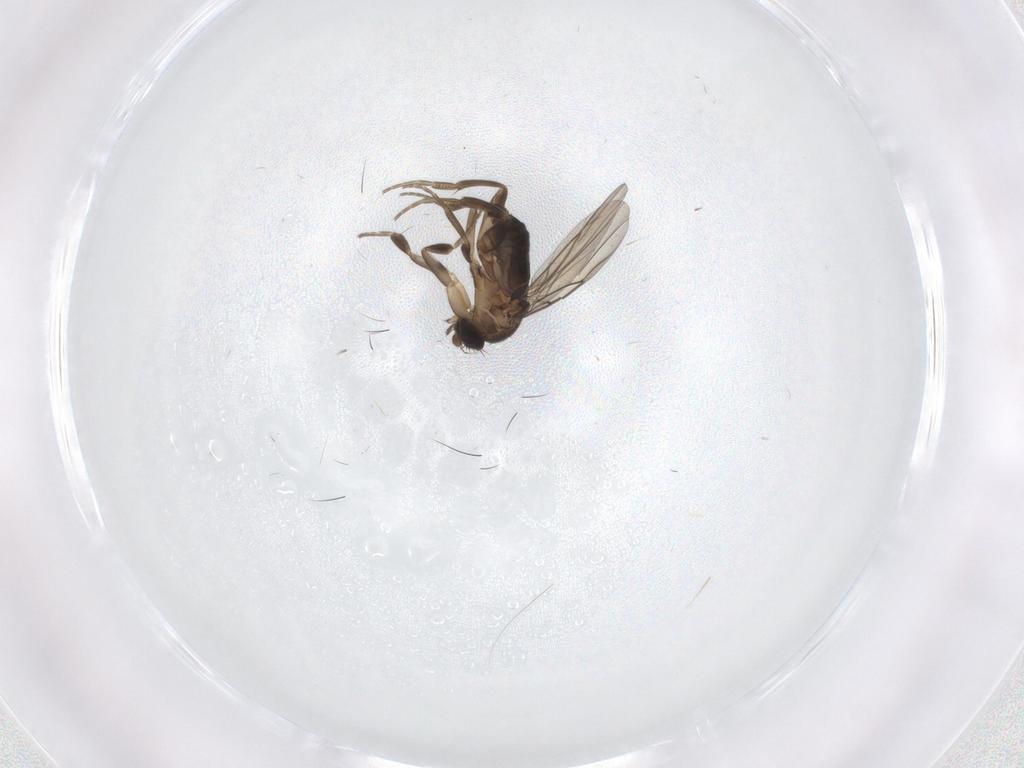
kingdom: Animalia
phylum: Arthropoda
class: Insecta
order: Diptera
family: Sciaridae
